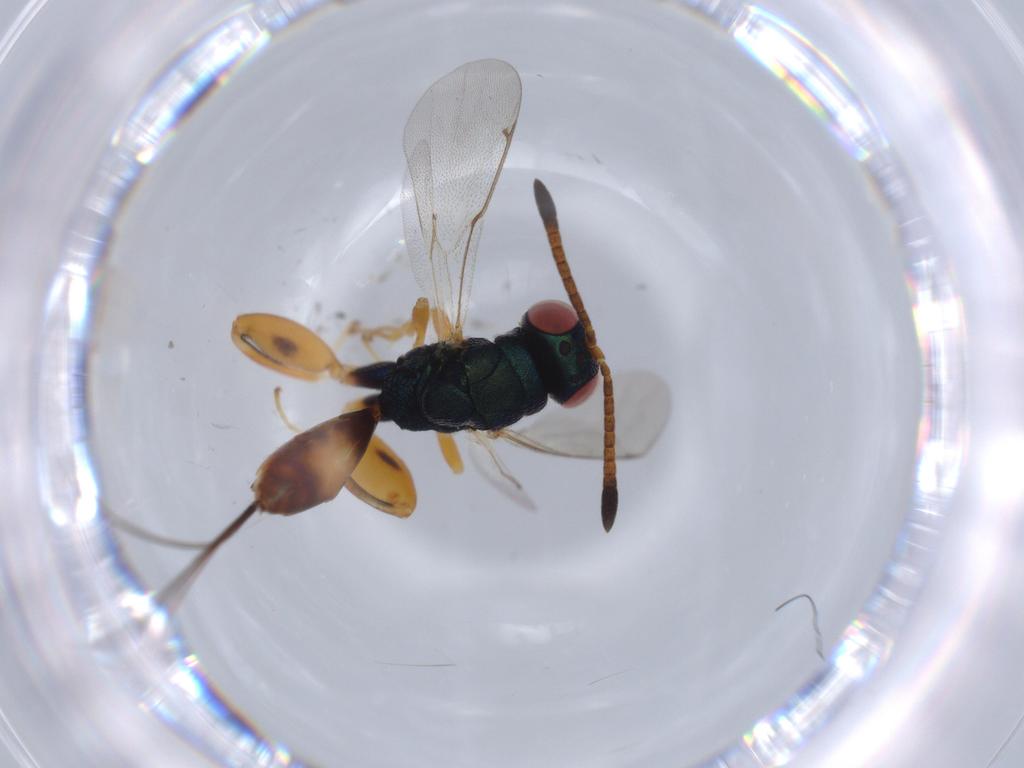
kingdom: Animalia
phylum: Arthropoda
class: Insecta
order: Hymenoptera
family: Torymidae
